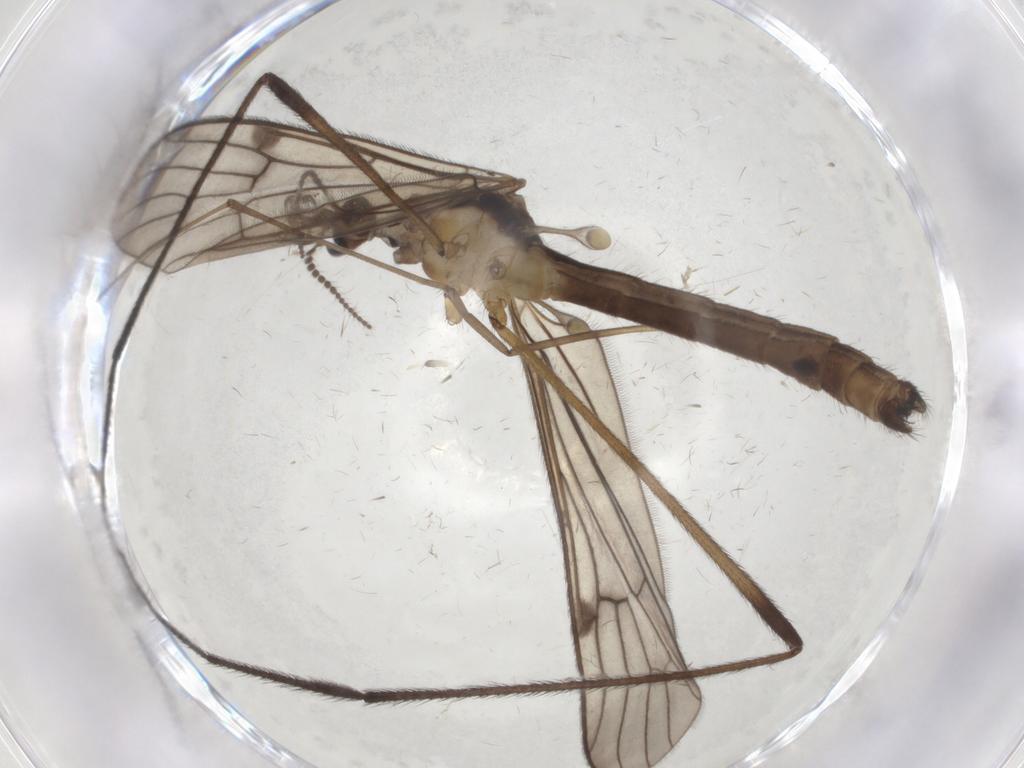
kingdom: Animalia
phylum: Arthropoda
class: Insecta
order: Diptera
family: Limoniidae
